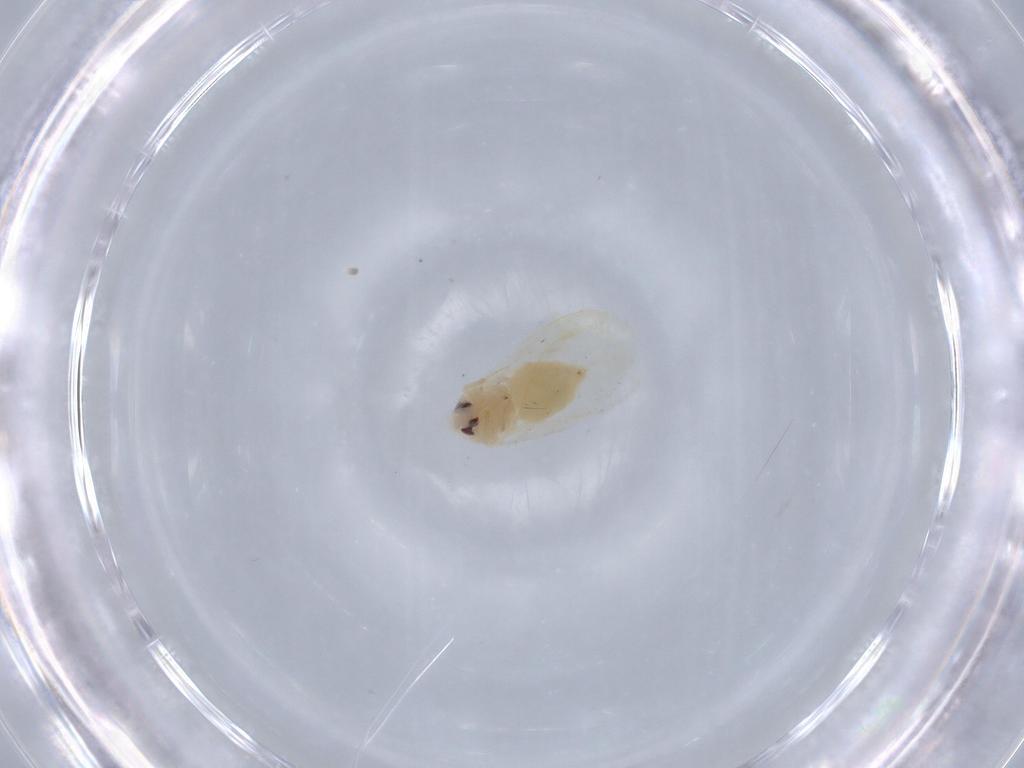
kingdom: Animalia
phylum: Arthropoda
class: Insecta
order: Hemiptera
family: Aleyrodidae
